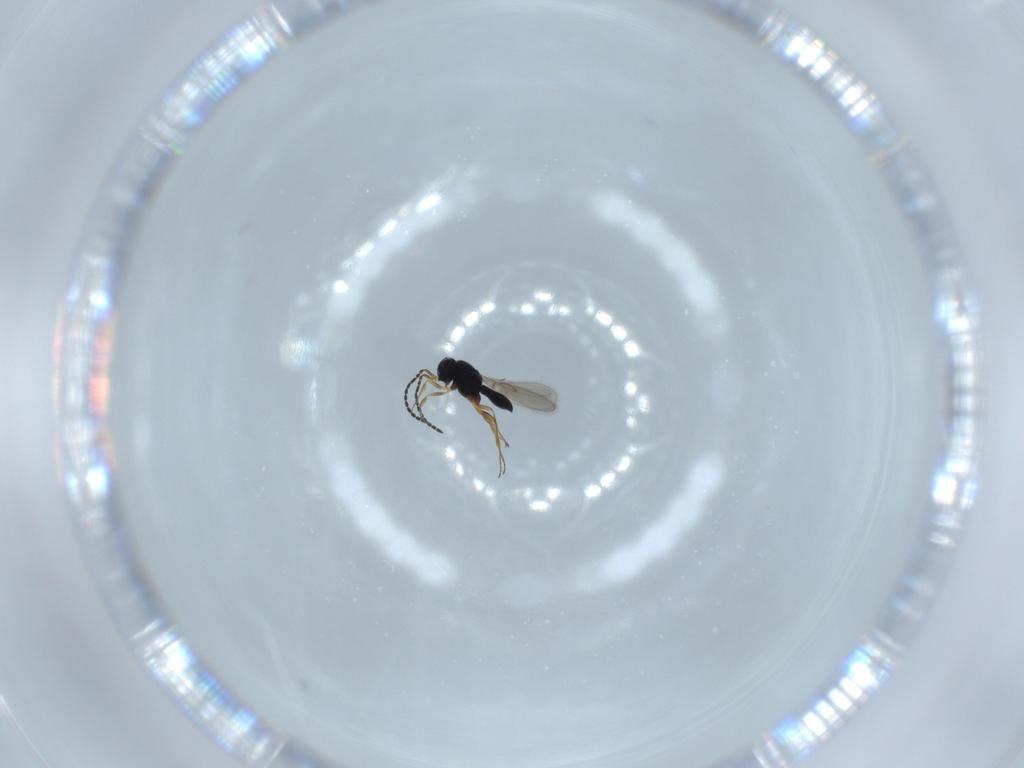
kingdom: Animalia
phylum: Arthropoda
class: Insecta
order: Hymenoptera
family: Scelionidae
